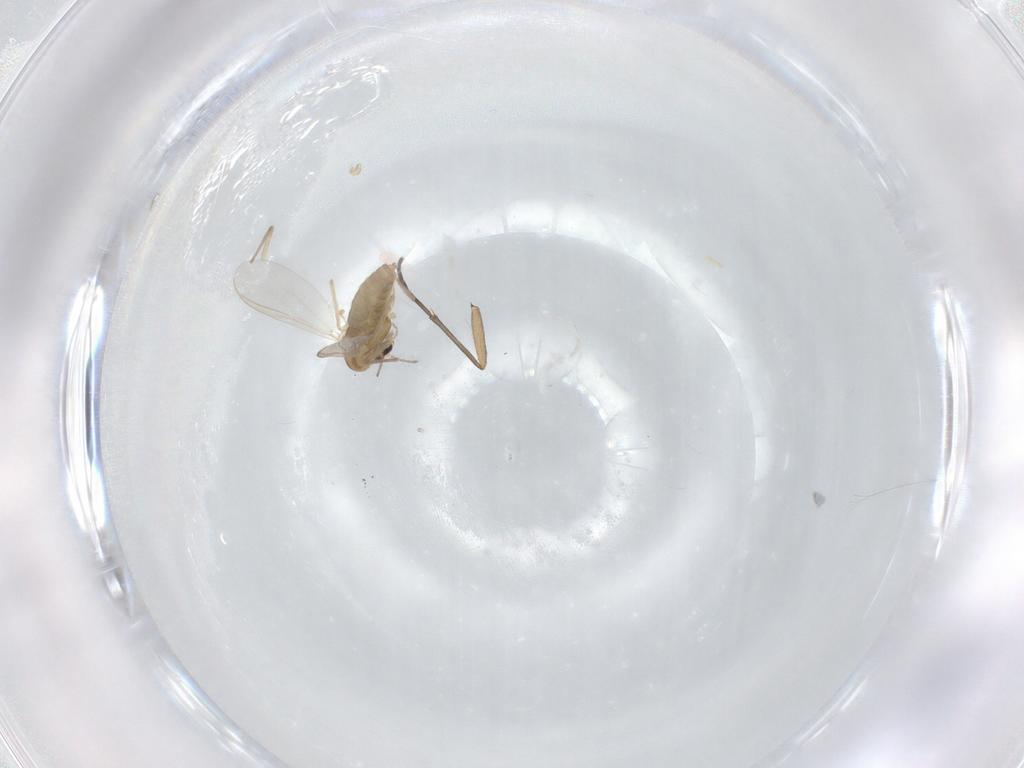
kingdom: Animalia
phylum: Arthropoda
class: Insecta
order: Diptera
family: Chironomidae
